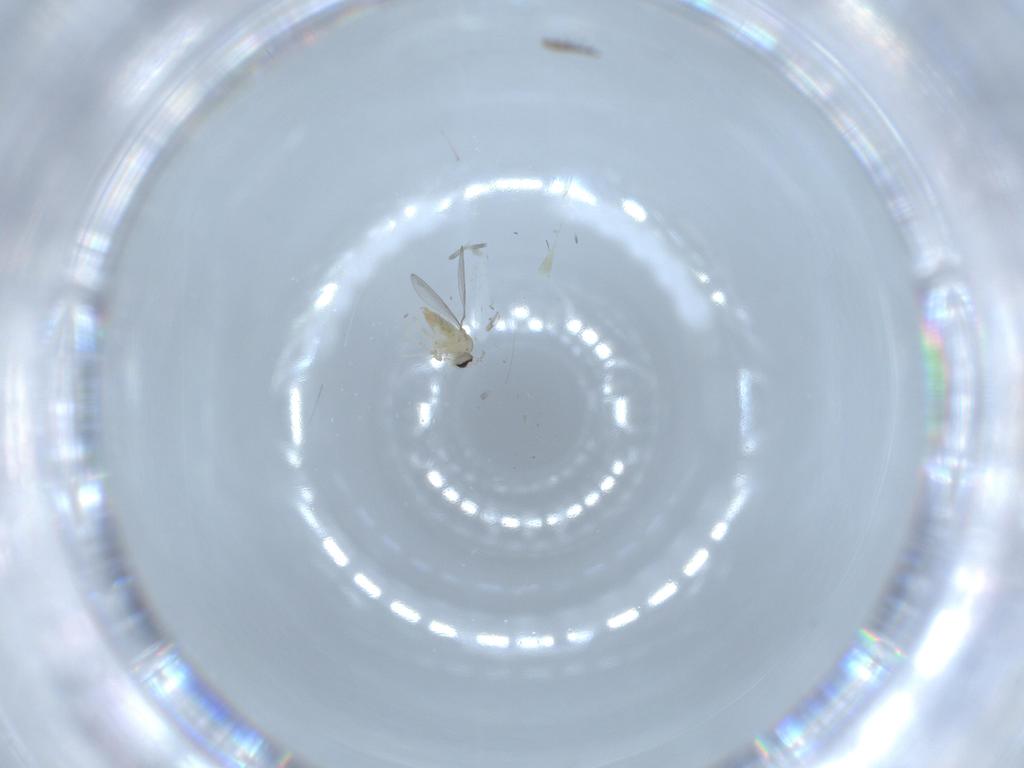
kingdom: Animalia
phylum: Arthropoda
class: Insecta
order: Diptera
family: Cecidomyiidae
